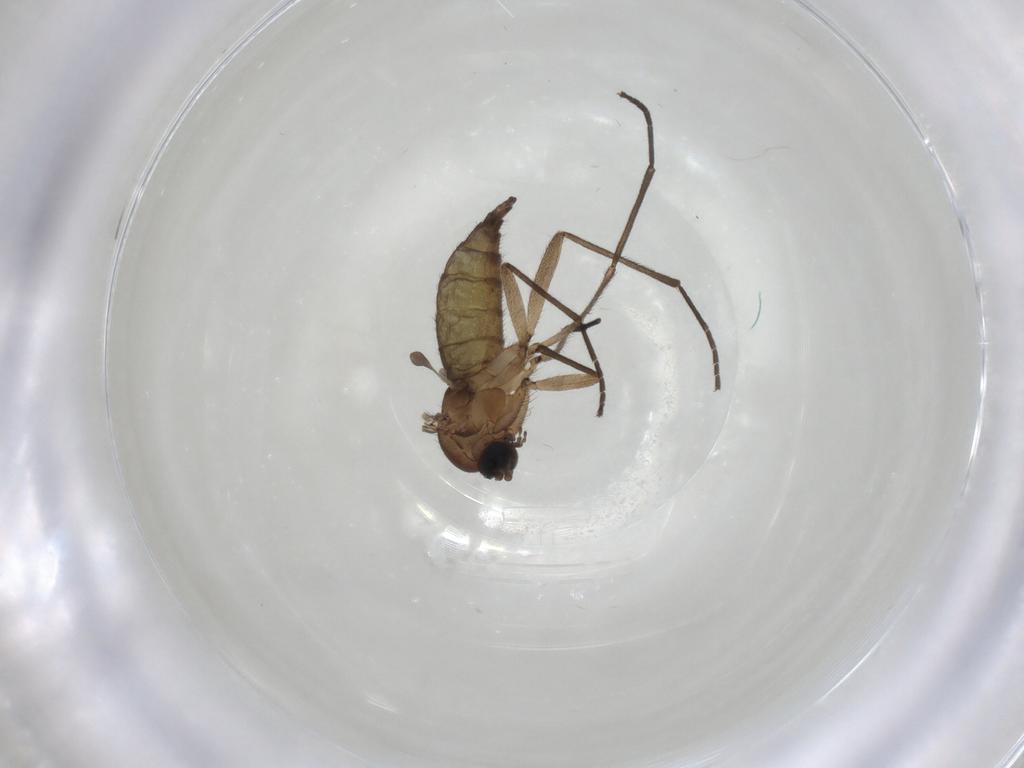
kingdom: Animalia
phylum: Arthropoda
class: Insecta
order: Diptera
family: Sciaridae
